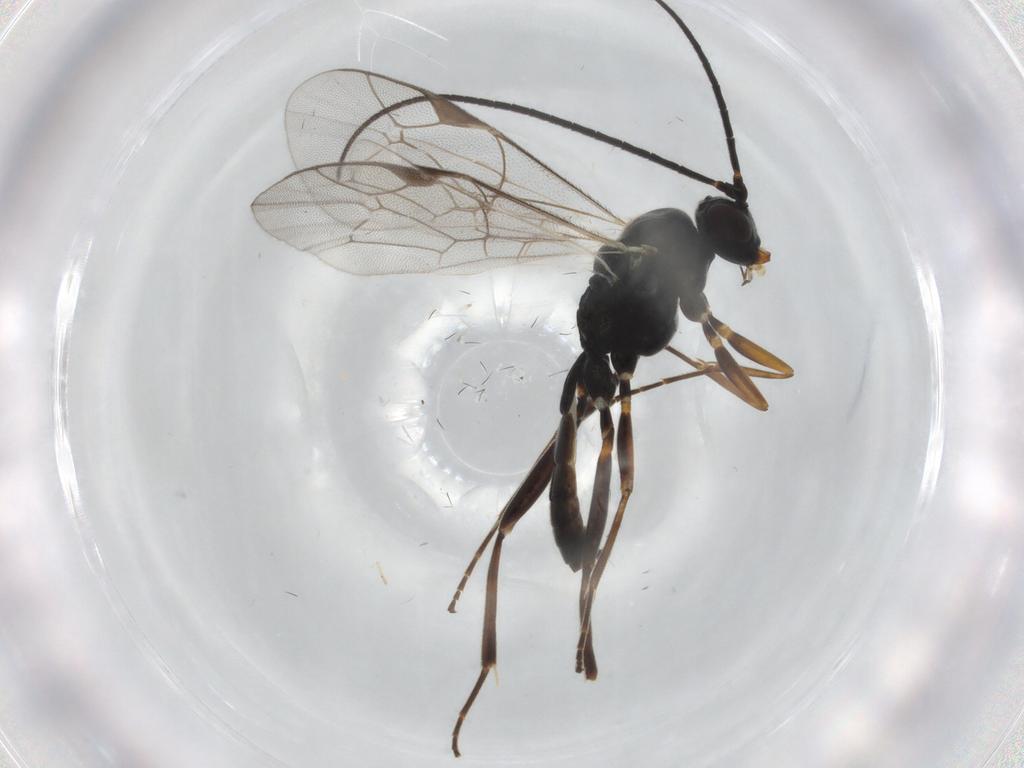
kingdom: Animalia
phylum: Arthropoda
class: Insecta
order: Hymenoptera
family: Ichneumonidae
